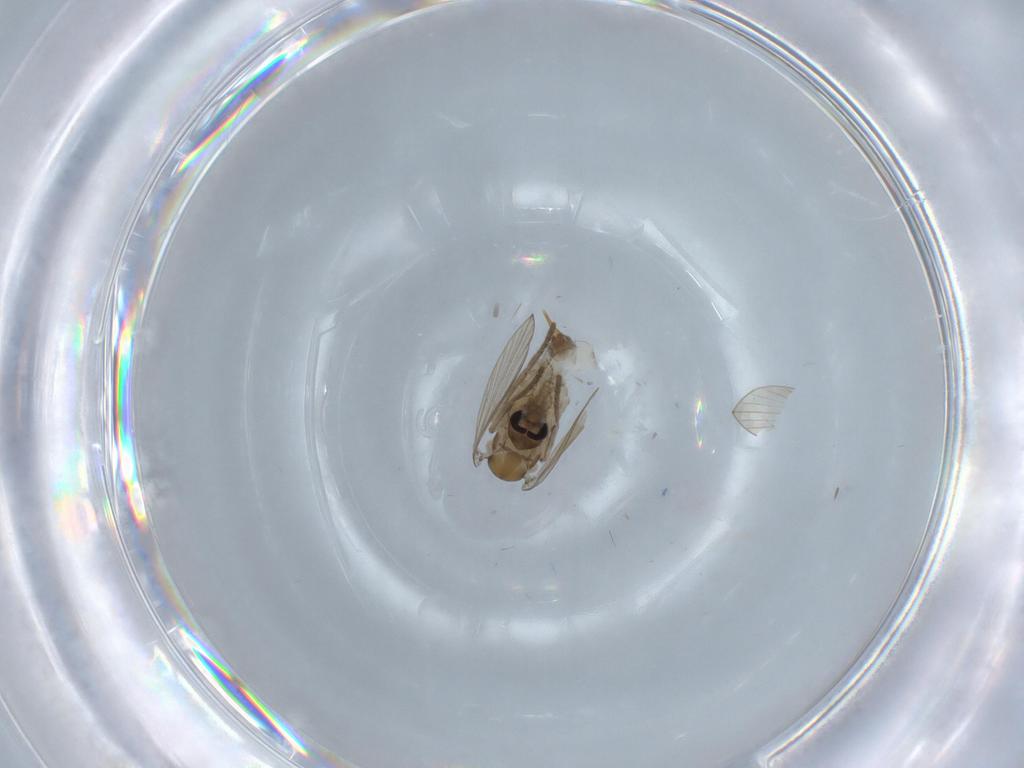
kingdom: Animalia
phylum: Arthropoda
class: Insecta
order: Diptera
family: Psychodidae
